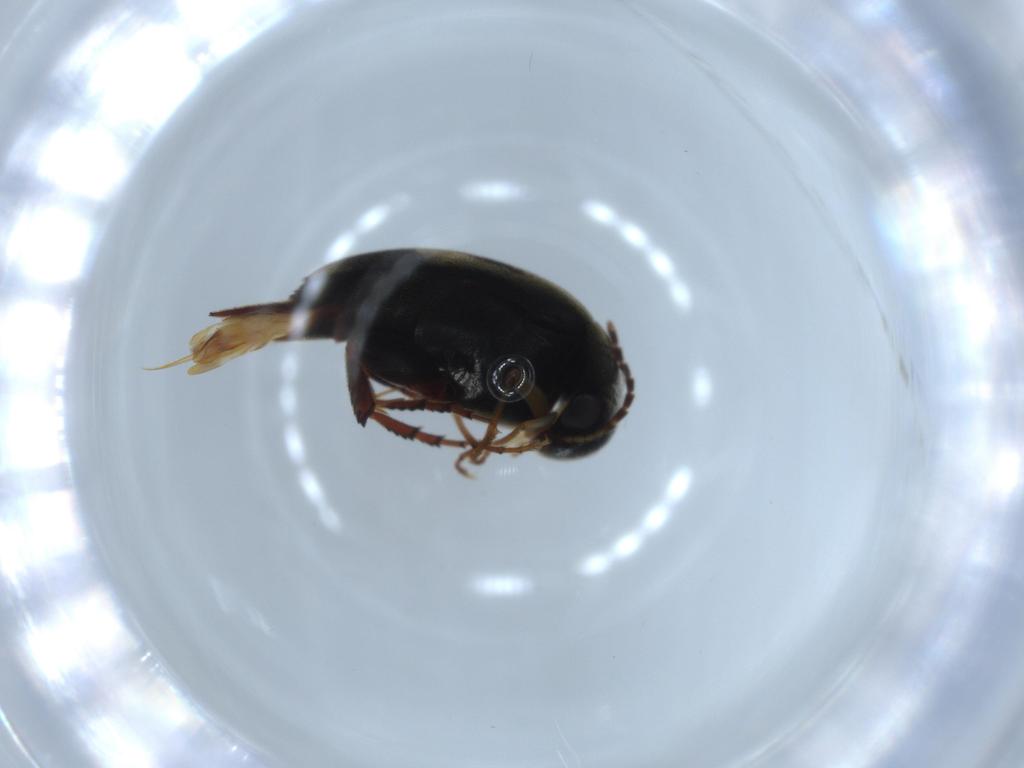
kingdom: Animalia
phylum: Arthropoda
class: Insecta
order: Coleoptera
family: Mordellidae
